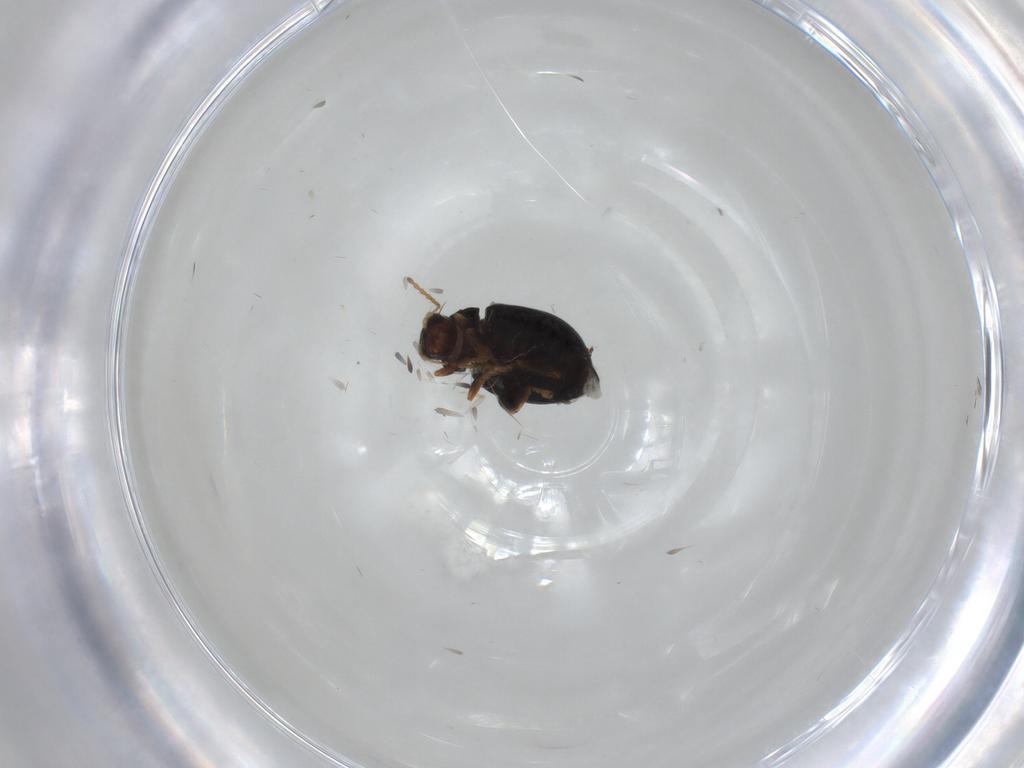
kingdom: Animalia
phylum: Arthropoda
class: Insecta
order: Coleoptera
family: Chrysomelidae
